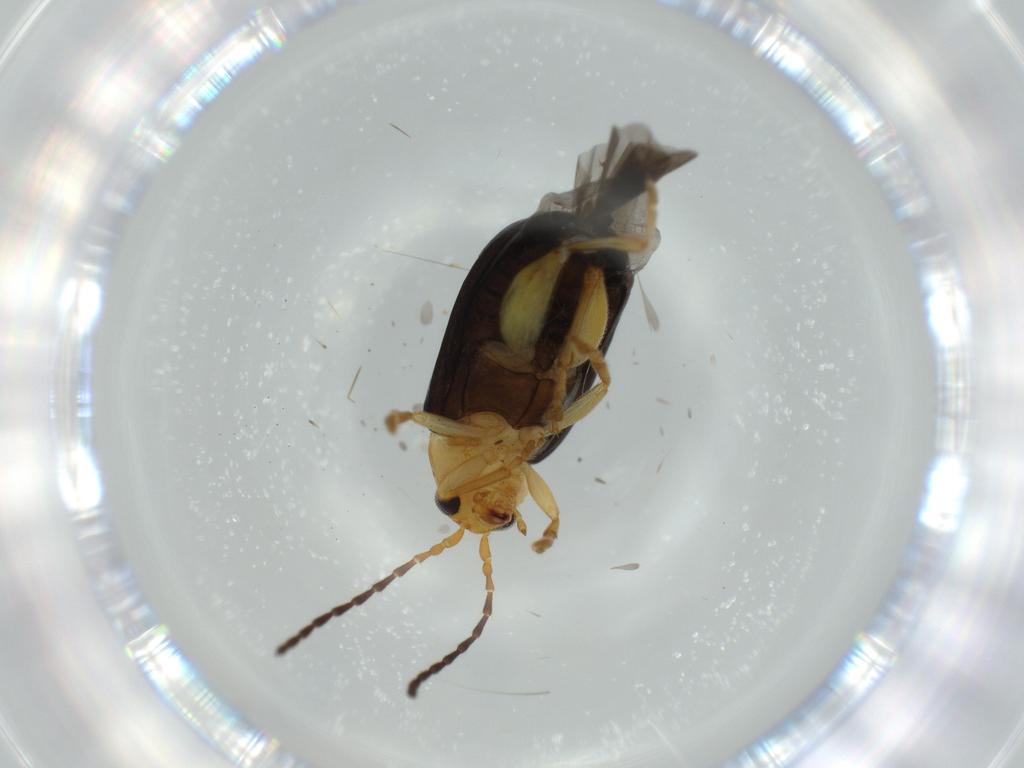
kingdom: Animalia
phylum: Arthropoda
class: Insecta
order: Coleoptera
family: Chrysomelidae
